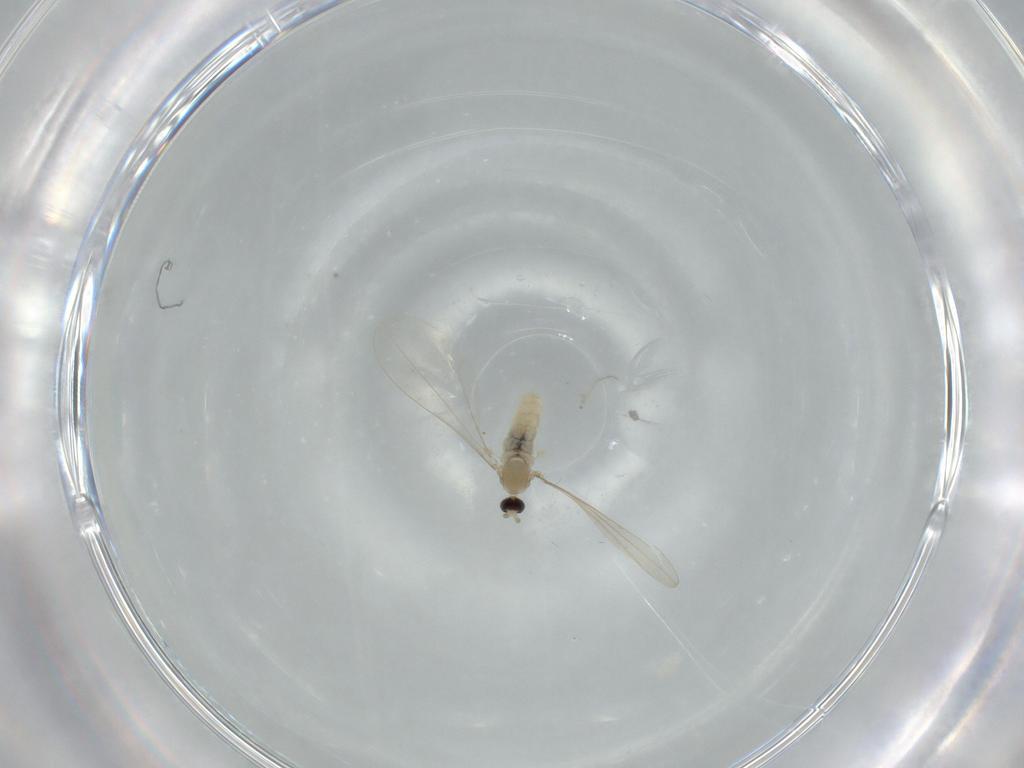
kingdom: Animalia
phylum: Arthropoda
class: Insecta
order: Diptera
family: Cecidomyiidae
